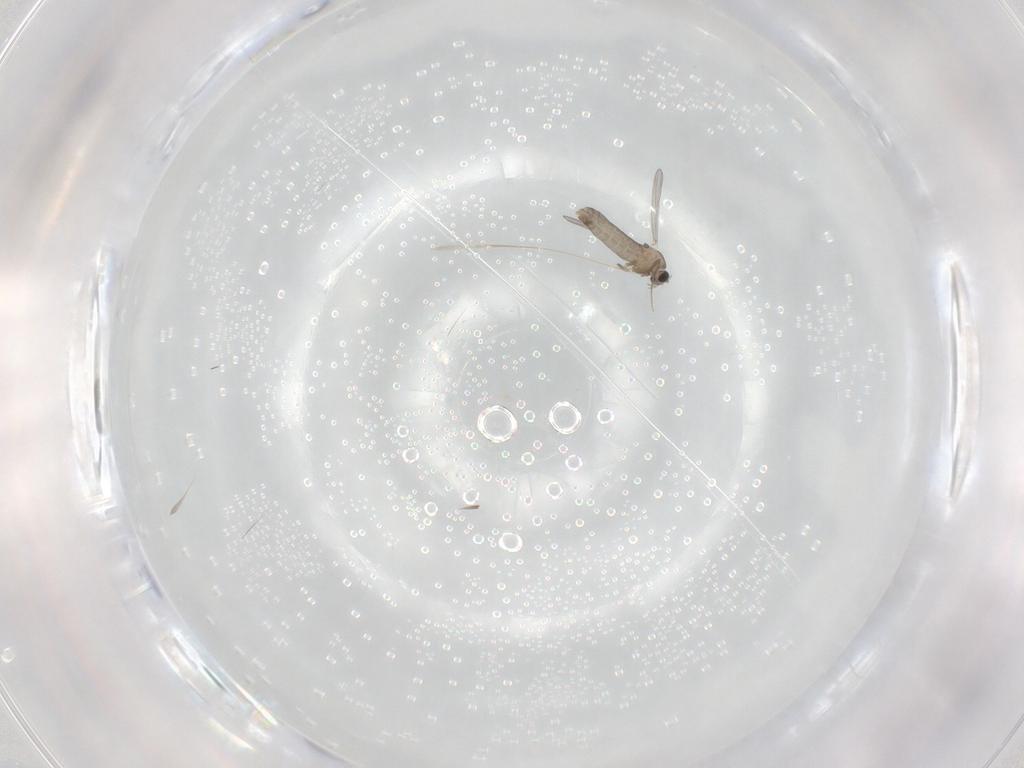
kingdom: Animalia
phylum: Arthropoda
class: Insecta
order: Diptera
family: Chironomidae
